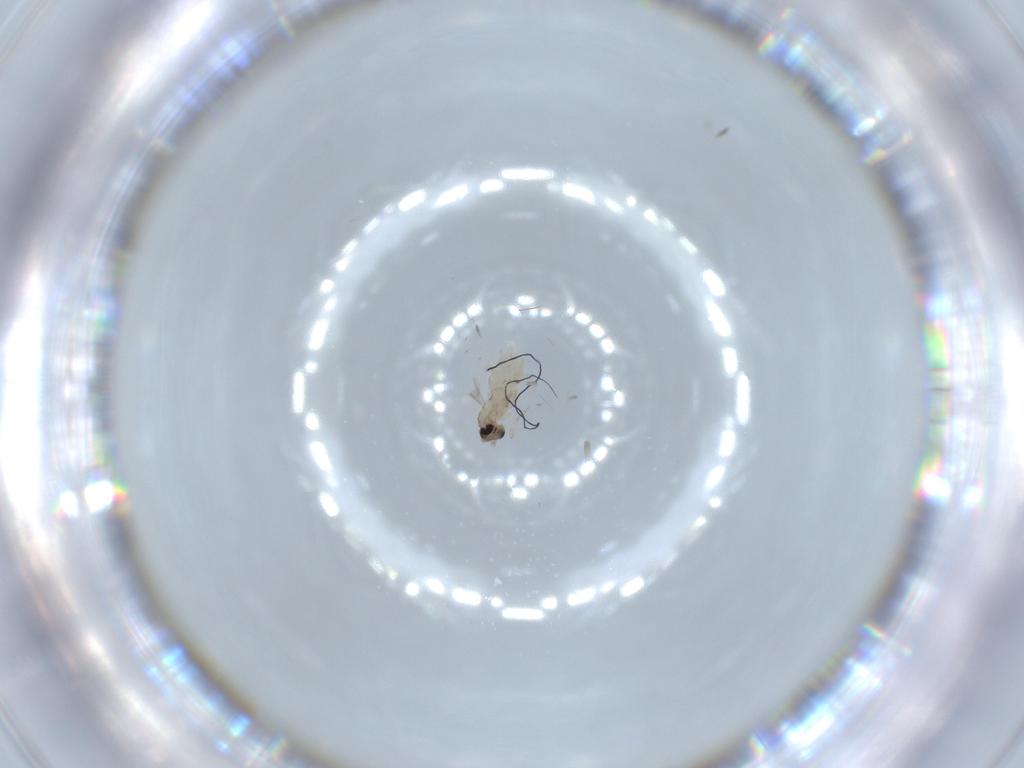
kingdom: Animalia
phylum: Arthropoda
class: Insecta
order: Diptera
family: Cecidomyiidae
